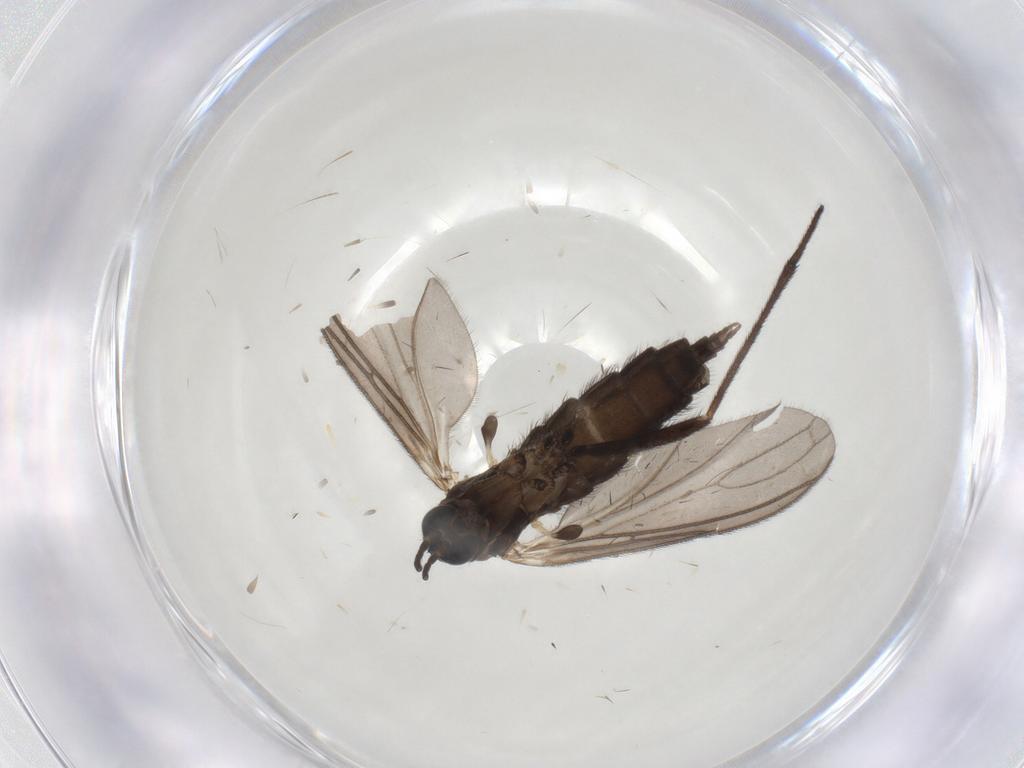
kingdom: Animalia
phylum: Arthropoda
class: Insecta
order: Diptera
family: Sciaridae
